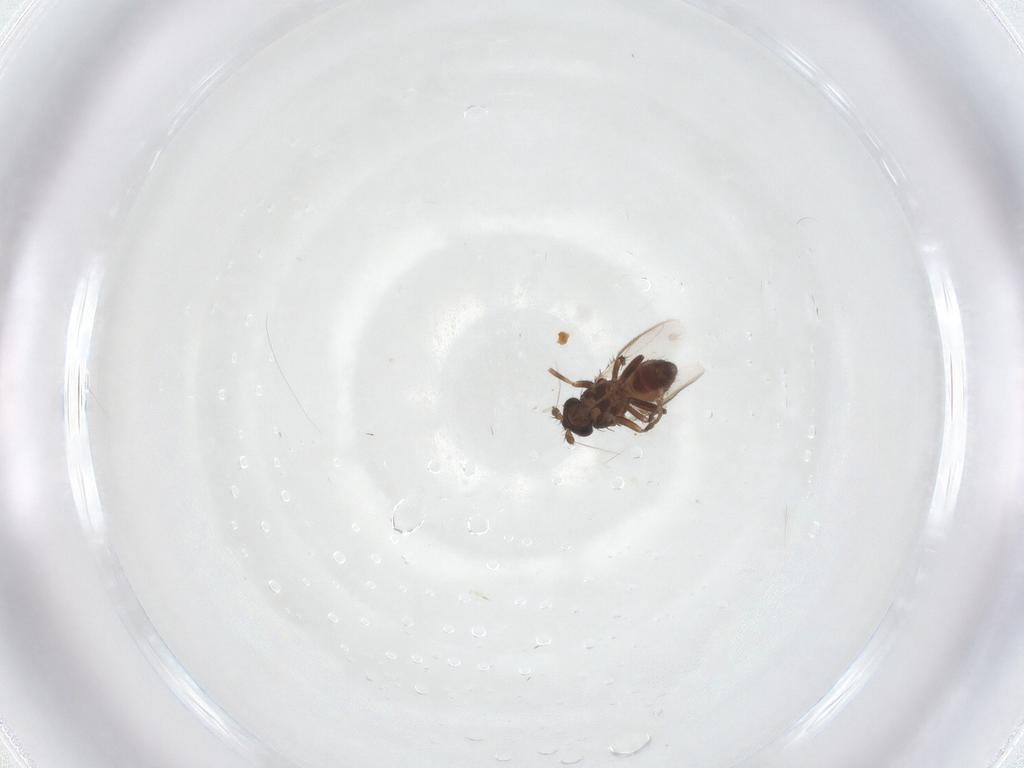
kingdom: Animalia
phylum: Arthropoda
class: Insecta
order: Diptera
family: Sphaeroceridae
